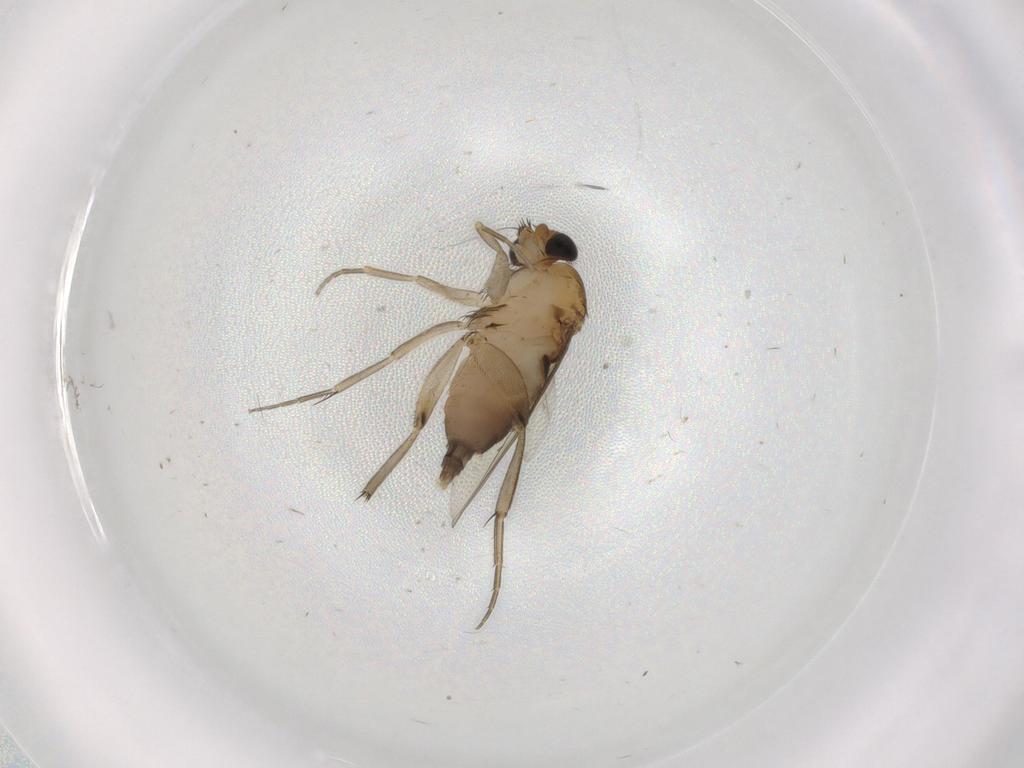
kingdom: Animalia
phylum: Arthropoda
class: Insecta
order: Diptera
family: Phoridae
